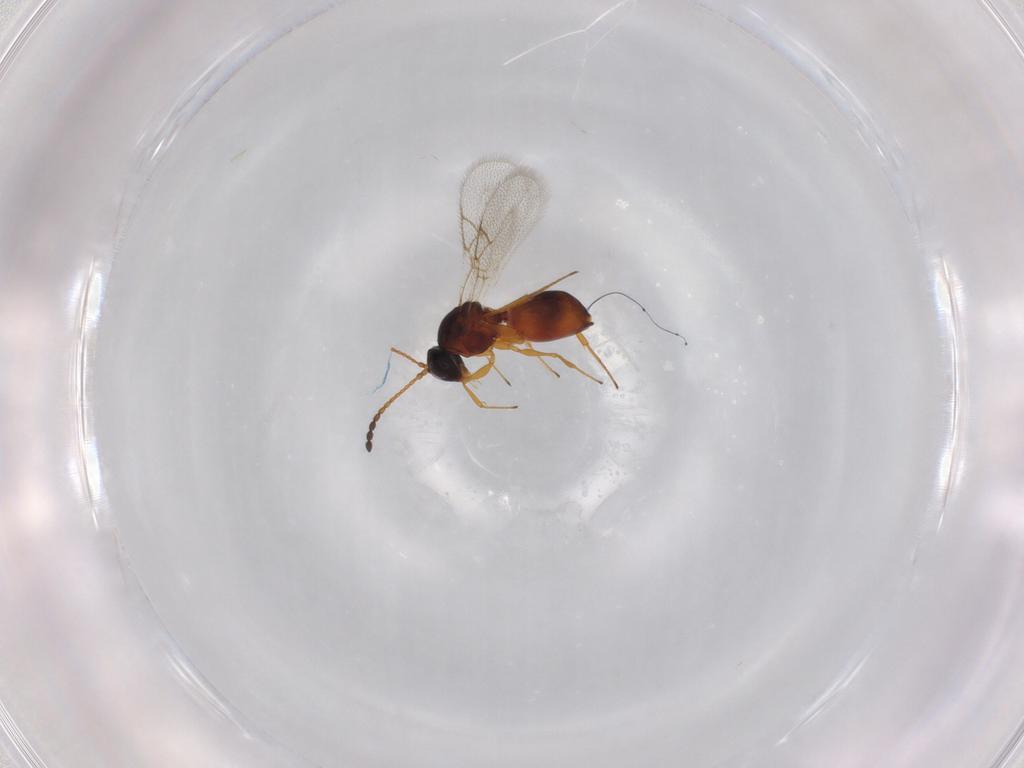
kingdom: Animalia
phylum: Arthropoda
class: Insecta
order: Hymenoptera
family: Figitidae
